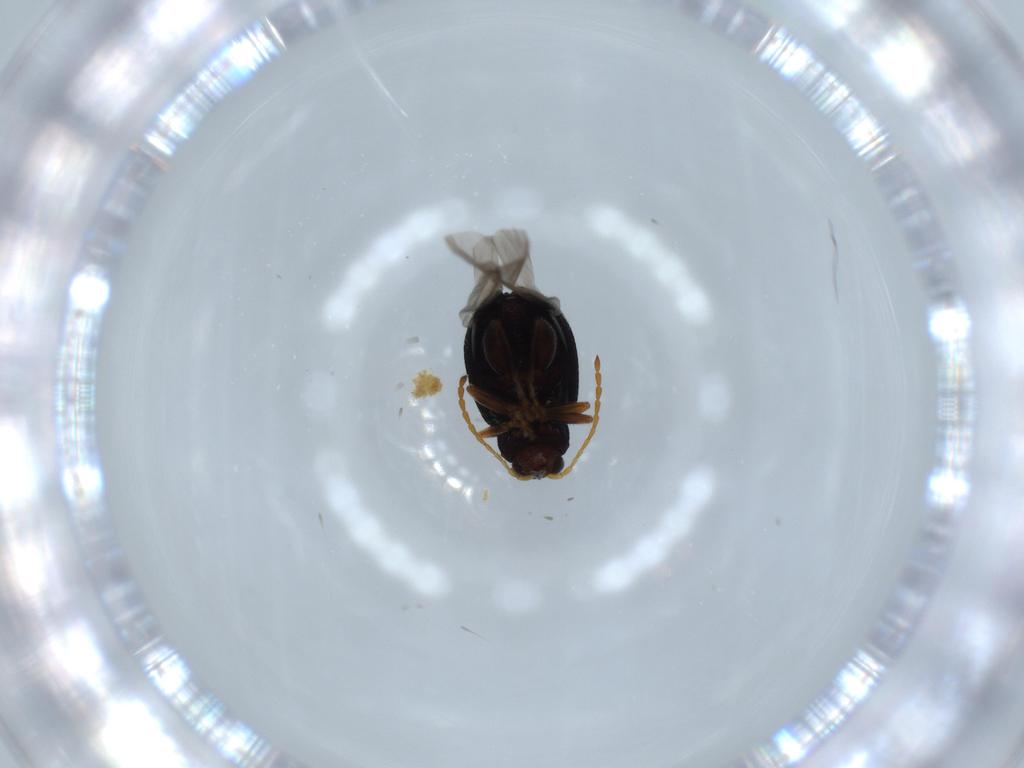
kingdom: Animalia
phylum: Arthropoda
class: Insecta
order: Coleoptera
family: Chrysomelidae
